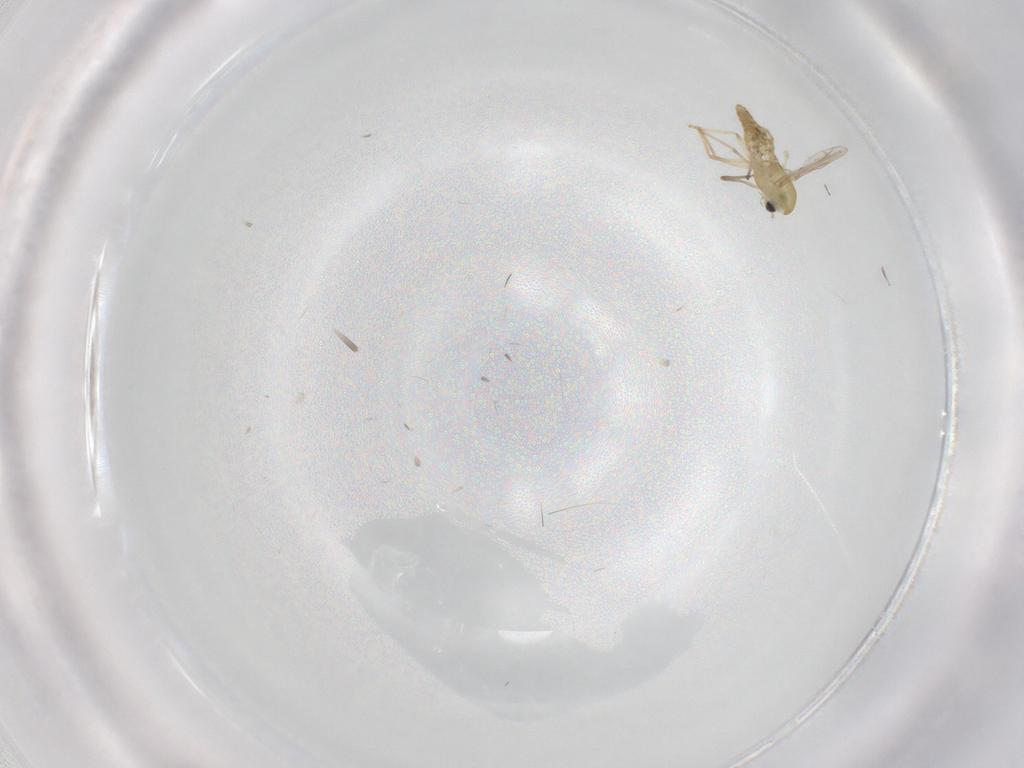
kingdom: Animalia
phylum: Arthropoda
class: Insecta
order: Diptera
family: Chironomidae
